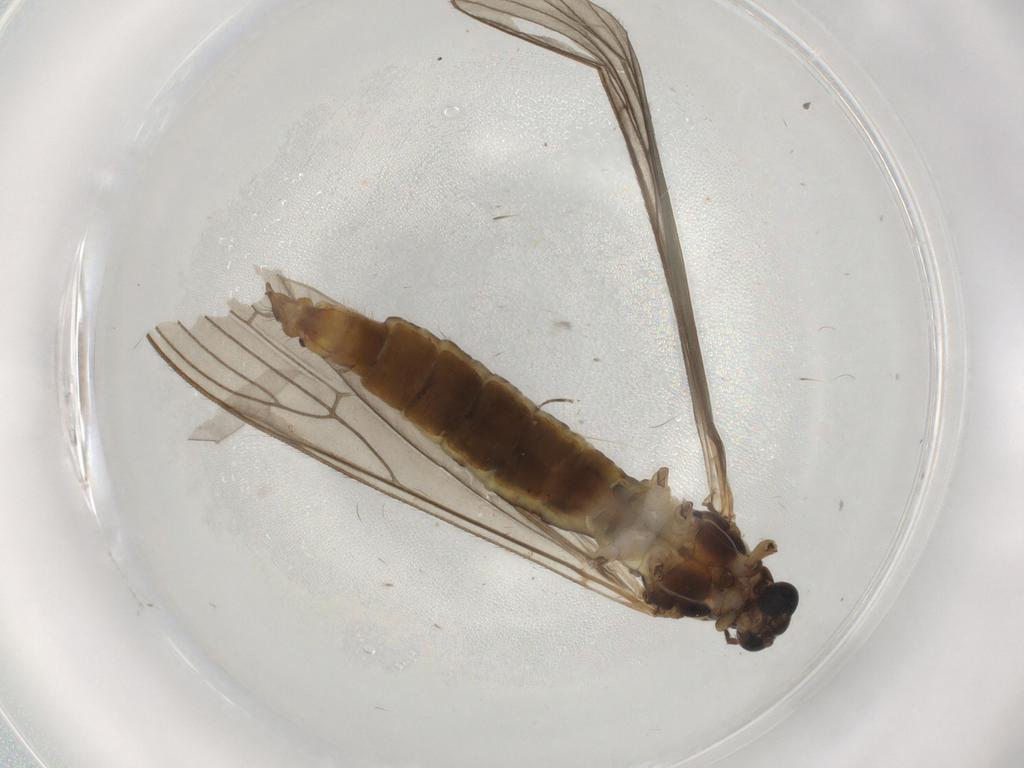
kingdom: Animalia
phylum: Arthropoda
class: Insecta
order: Diptera
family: Limoniidae
